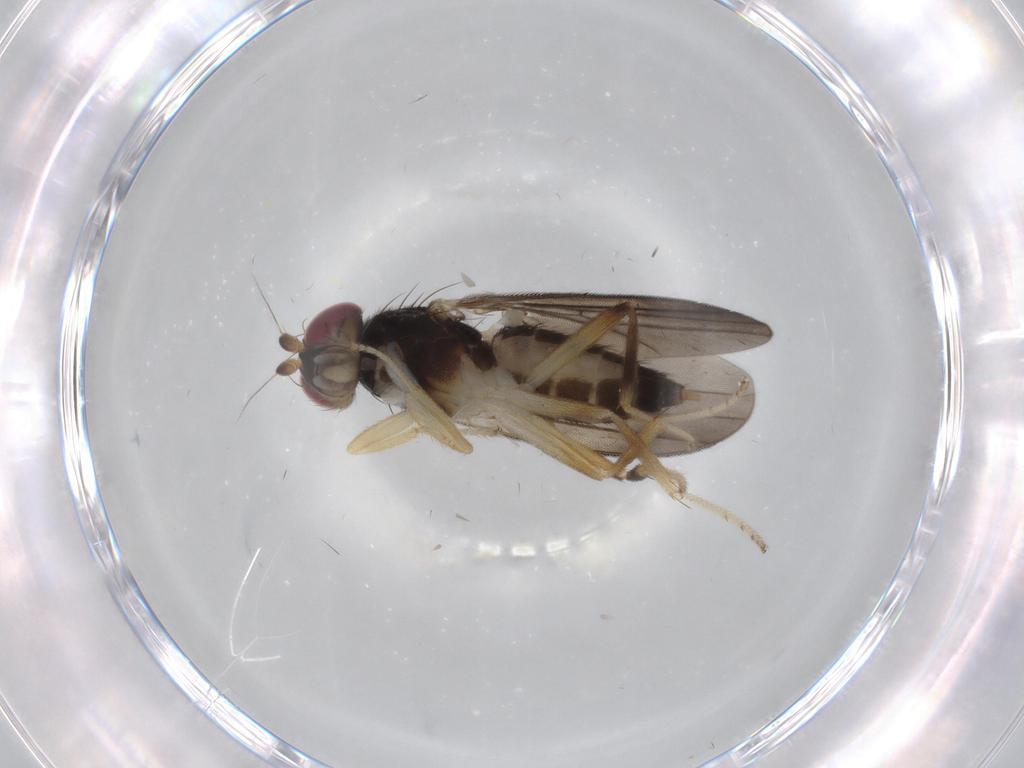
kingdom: Animalia
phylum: Arthropoda
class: Insecta
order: Diptera
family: Clusiidae
